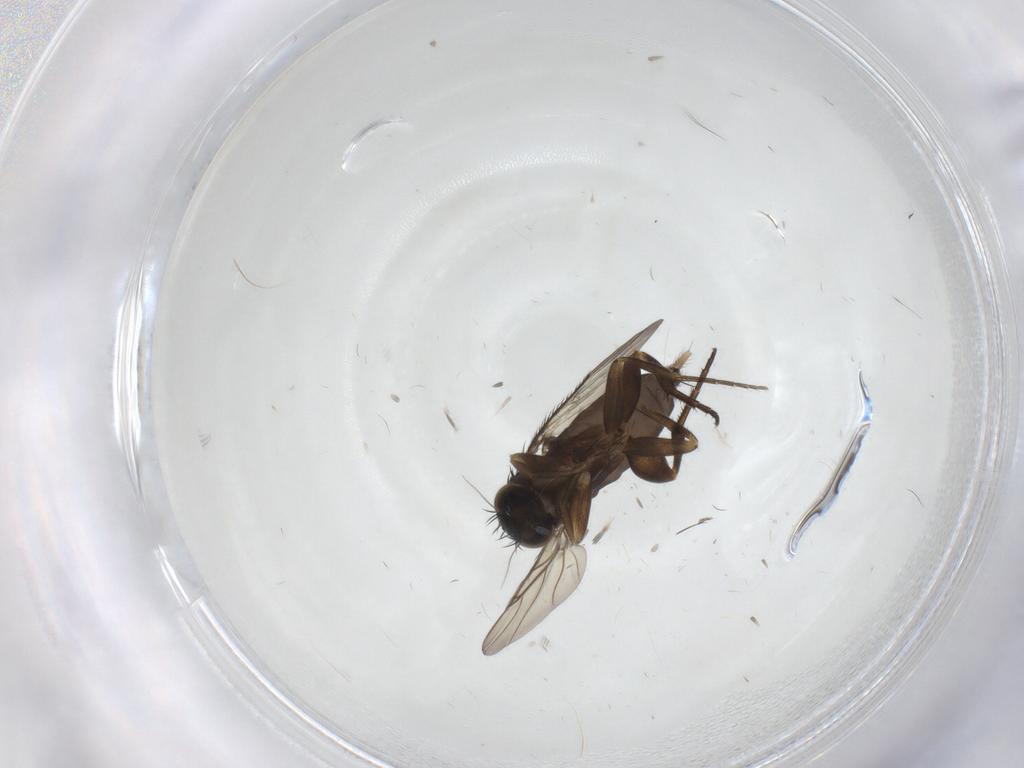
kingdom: Animalia
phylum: Arthropoda
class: Insecta
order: Diptera
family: Phoridae
